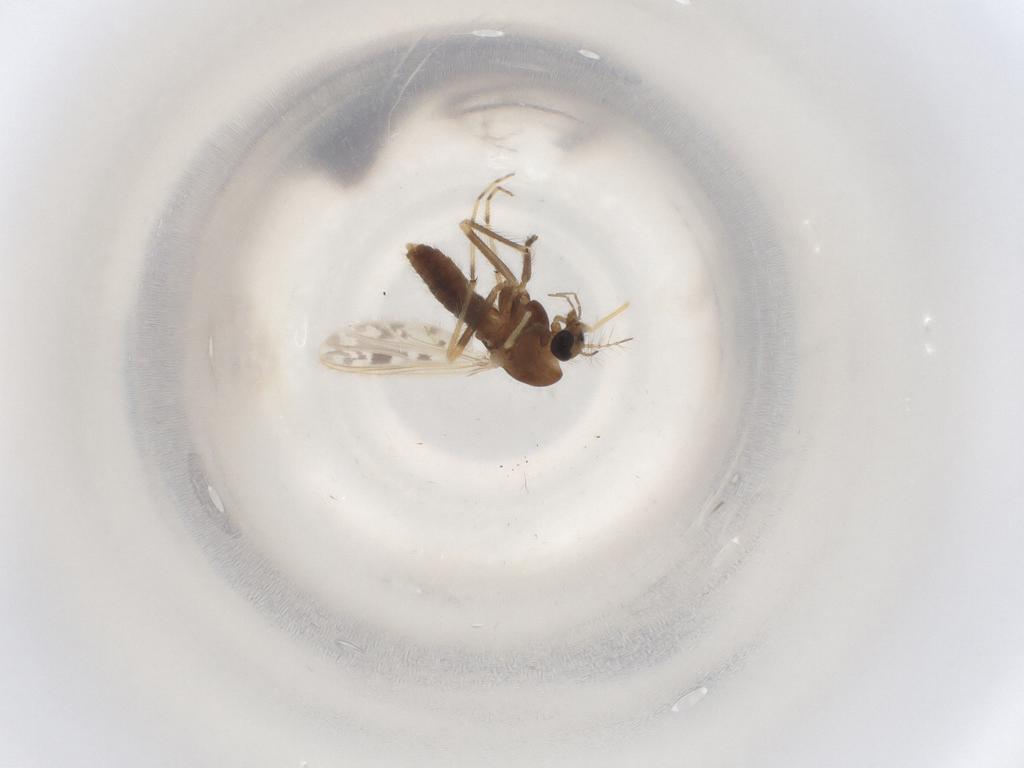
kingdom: Animalia
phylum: Arthropoda
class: Insecta
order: Diptera
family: Chironomidae
